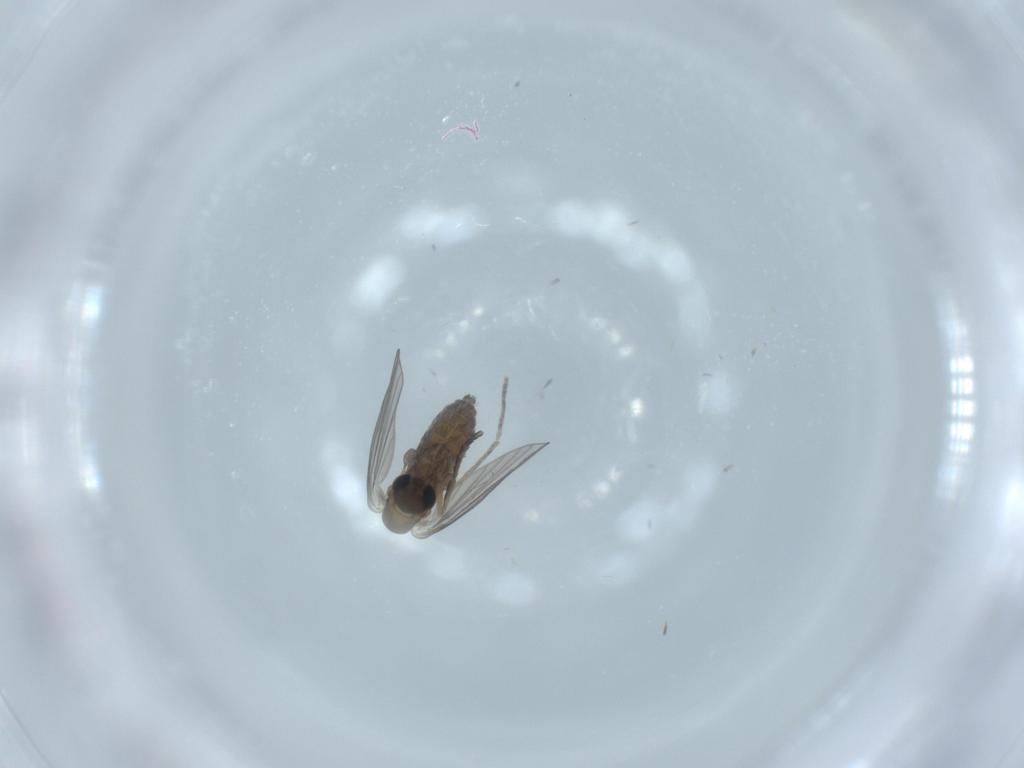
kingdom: Animalia
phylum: Arthropoda
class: Insecta
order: Diptera
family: Psychodidae
